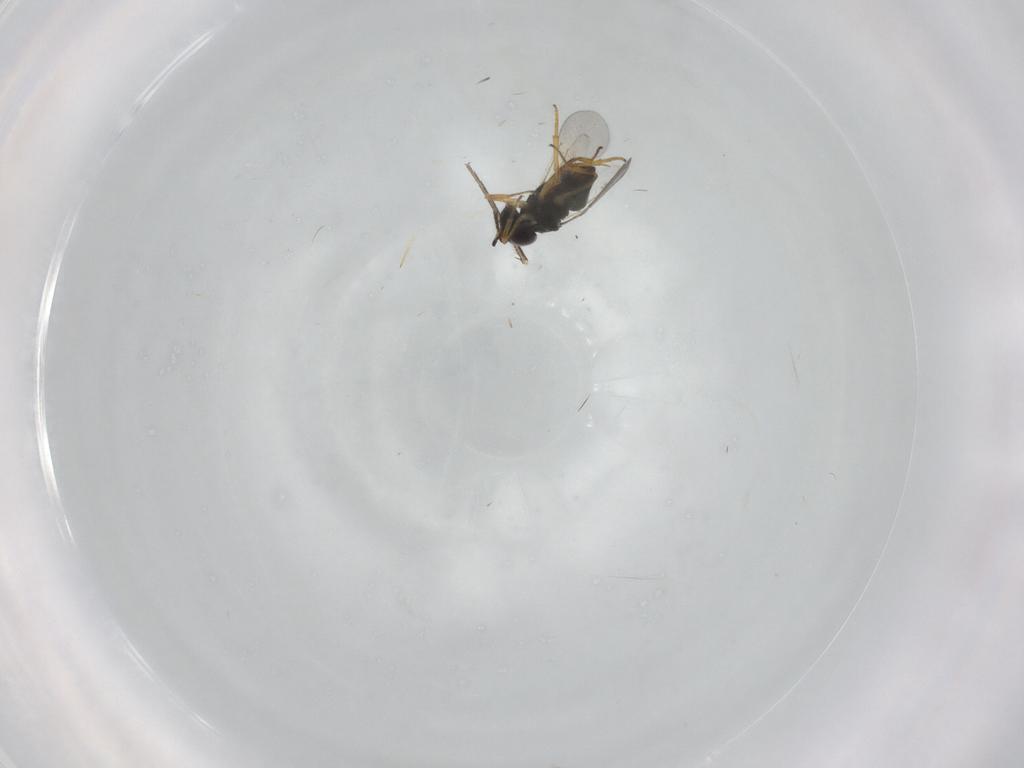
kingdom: Animalia
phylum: Arthropoda
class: Insecta
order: Hymenoptera
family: Encyrtidae
